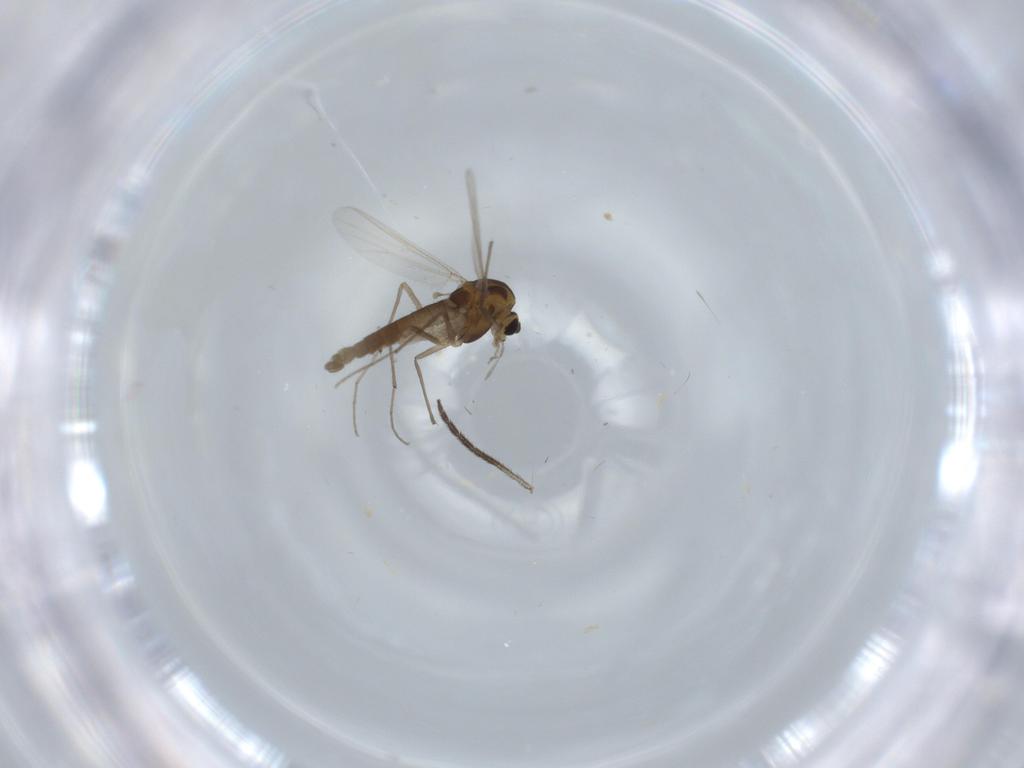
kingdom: Animalia
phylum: Arthropoda
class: Insecta
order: Diptera
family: Chironomidae
